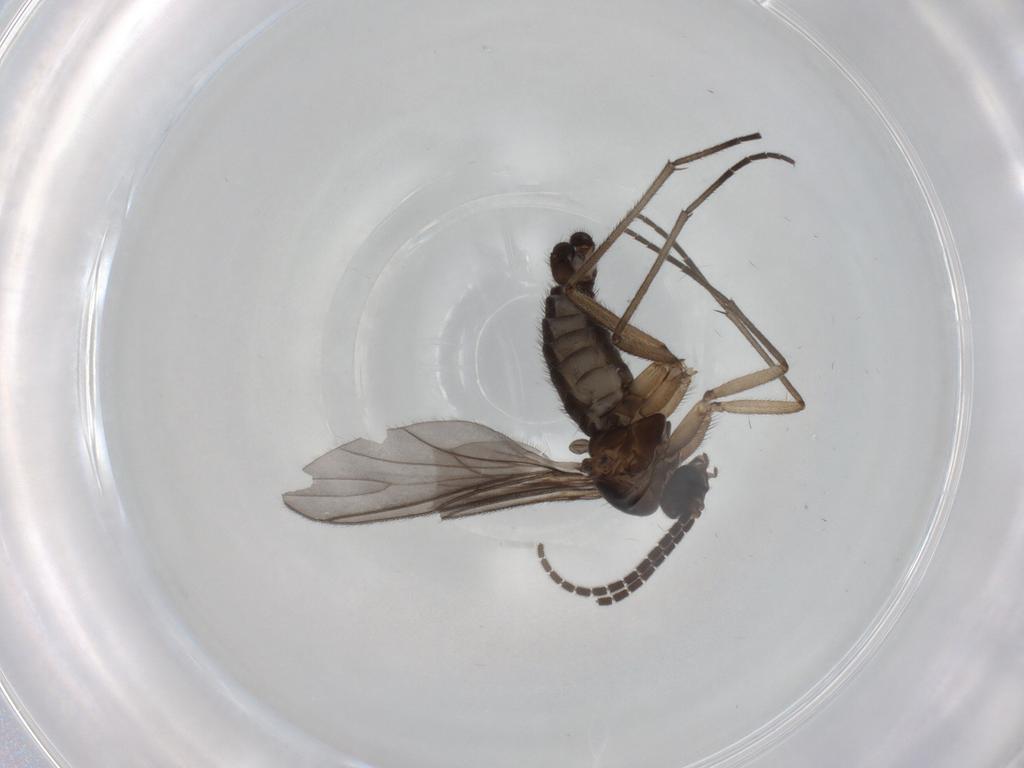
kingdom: Animalia
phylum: Arthropoda
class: Insecta
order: Diptera
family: Sciaridae
